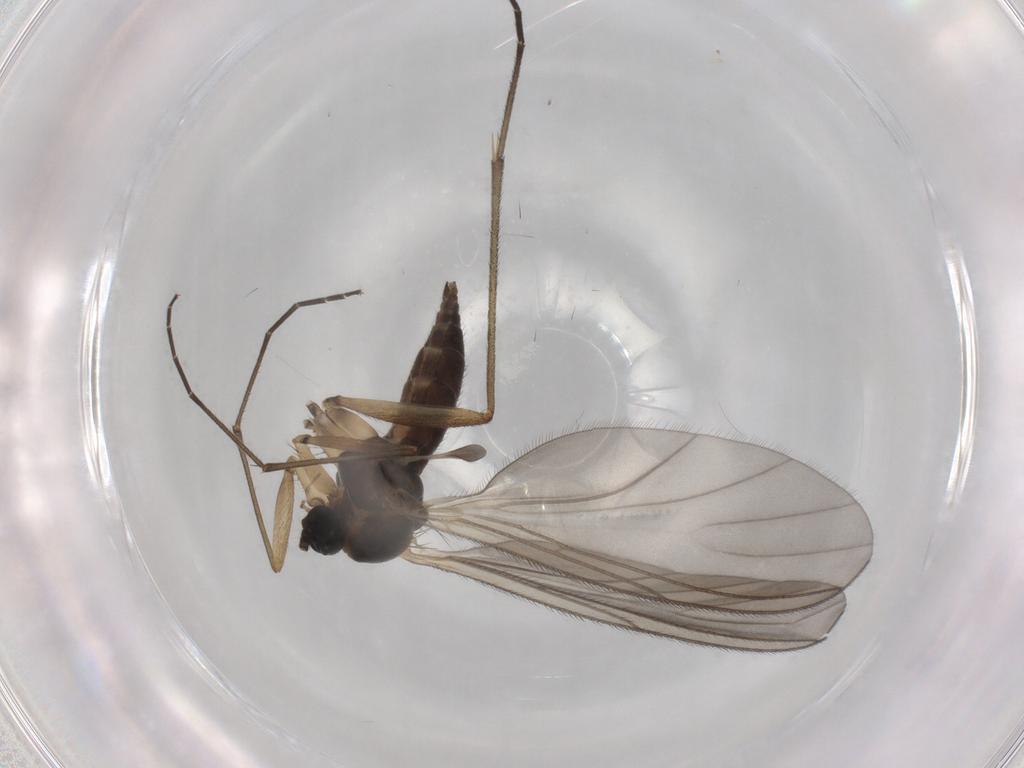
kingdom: Animalia
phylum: Arthropoda
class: Insecta
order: Diptera
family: Sciaridae
